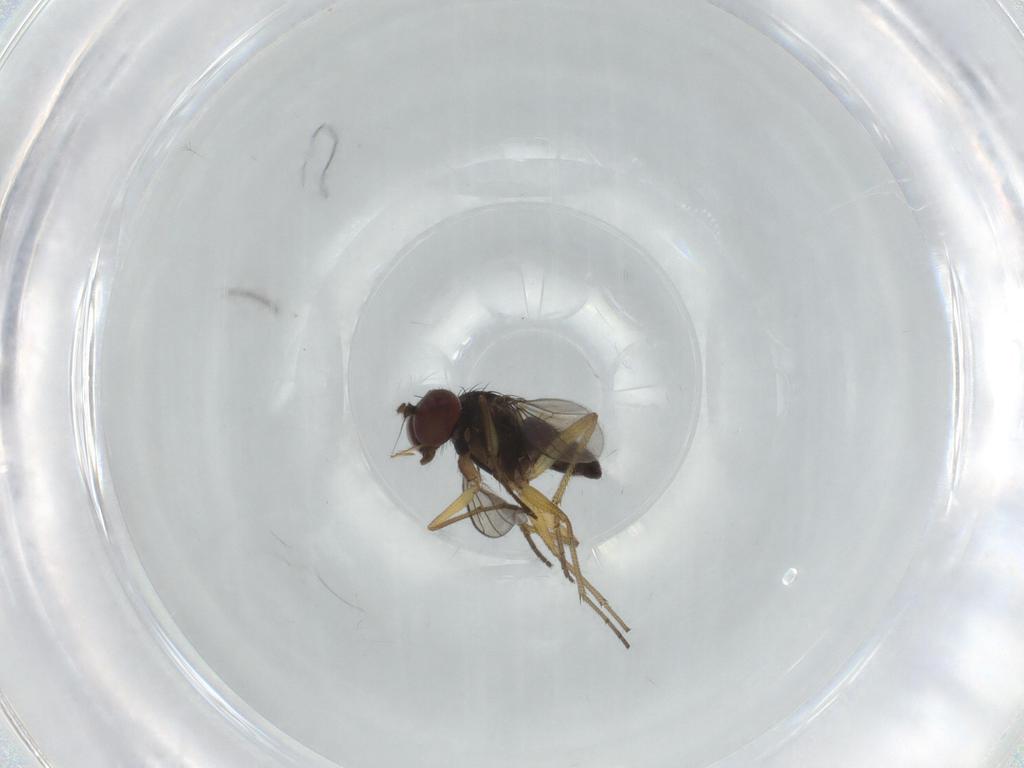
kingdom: Animalia
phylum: Arthropoda
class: Insecta
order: Diptera
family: Dolichopodidae
